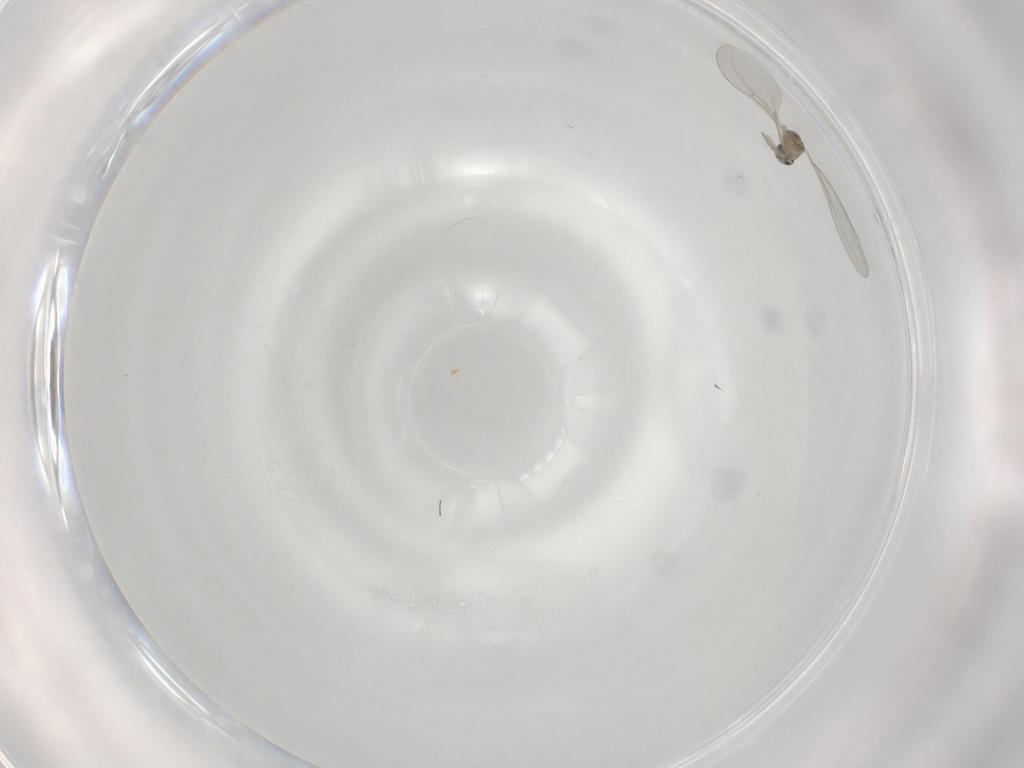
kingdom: Animalia
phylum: Arthropoda
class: Insecta
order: Diptera
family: Cecidomyiidae
